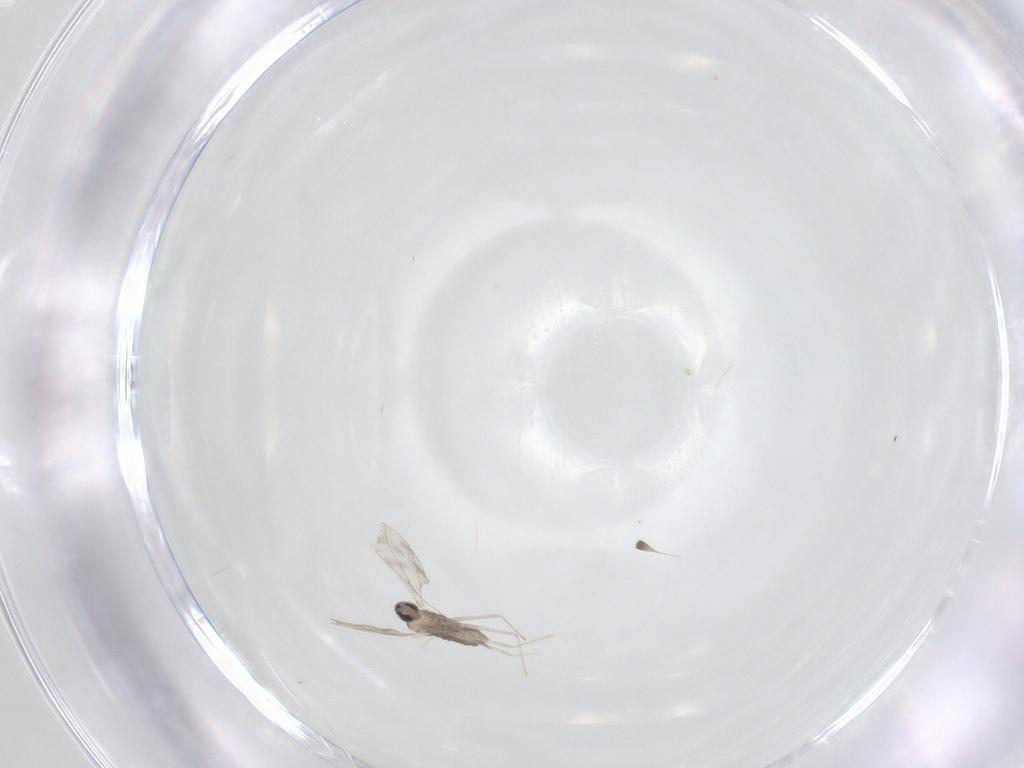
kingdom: Animalia
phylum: Arthropoda
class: Insecta
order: Diptera
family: Cecidomyiidae
